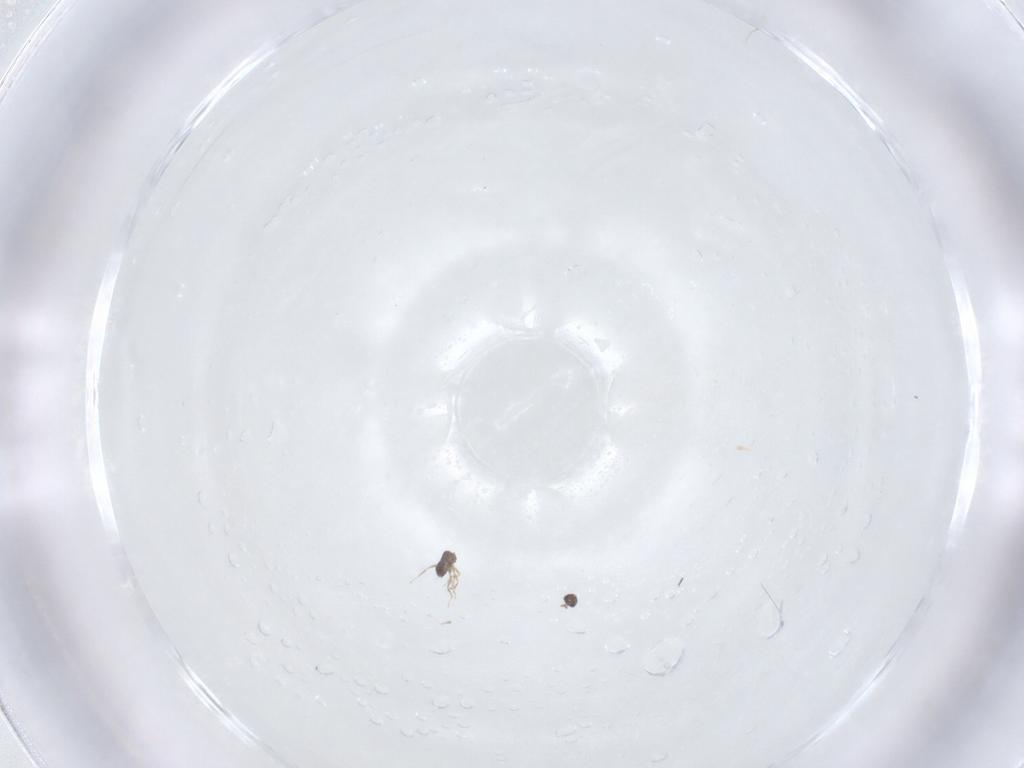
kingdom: Animalia
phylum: Arthropoda
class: Insecta
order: Hymenoptera
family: Mymaridae
